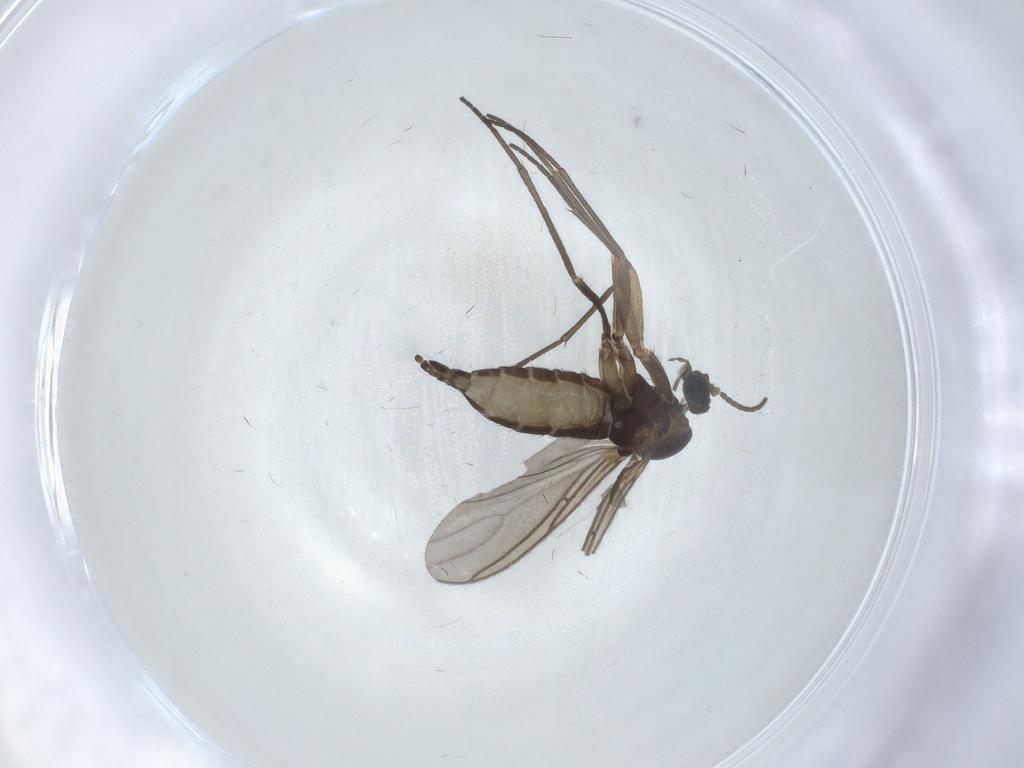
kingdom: Animalia
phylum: Arthropoda
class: Insecta
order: Diptera
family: Sciaridae
